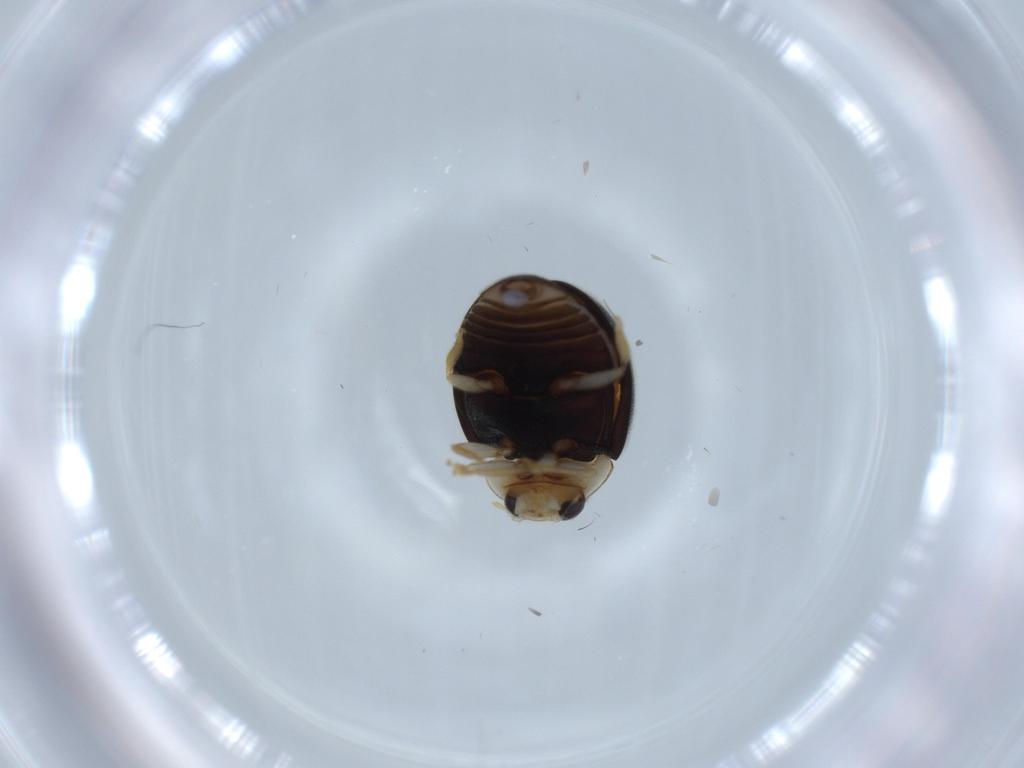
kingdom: Animalia
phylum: Arthropoda
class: Insecta
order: Coleoptera
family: Coccinellidae
